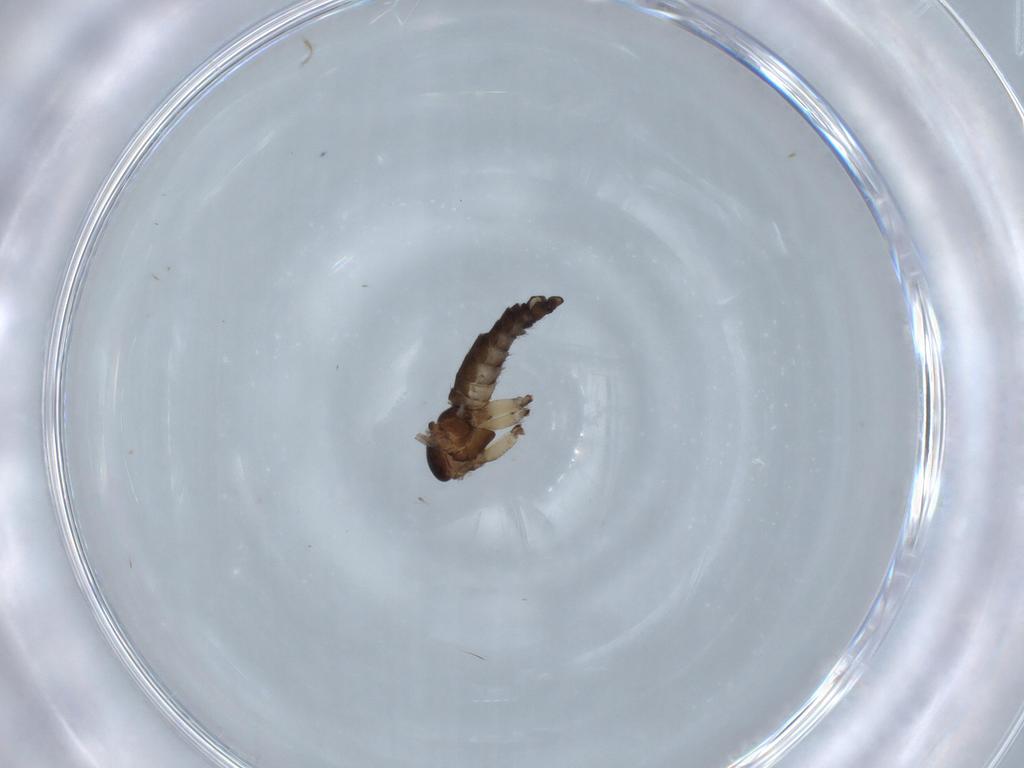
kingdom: Animalia
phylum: Arthropoda
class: Insecta
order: Diptera
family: Sciaridae
